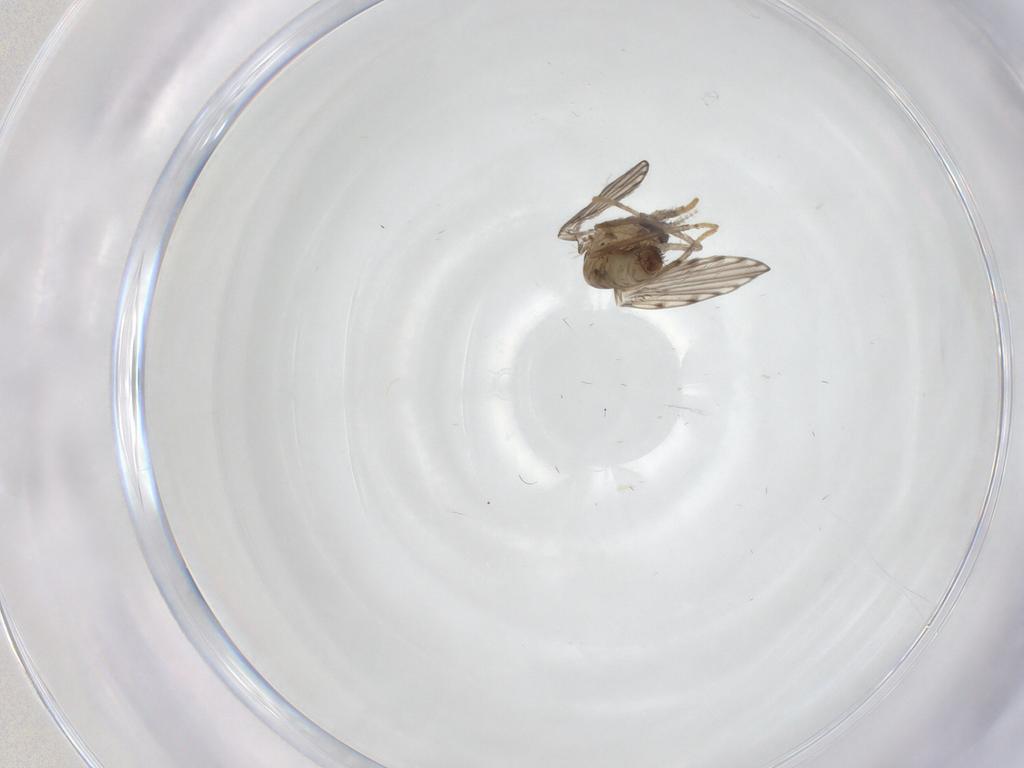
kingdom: Animalia
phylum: Arthropoda
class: Insecta
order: Diptera
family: Psychodidae
